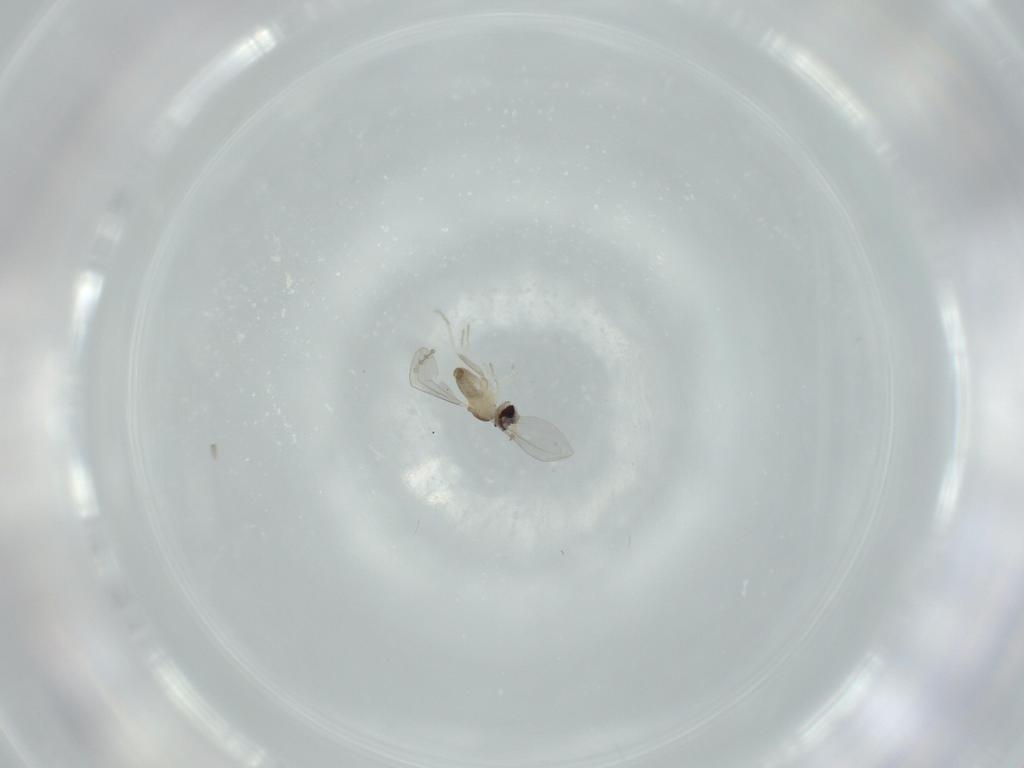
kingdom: Animalia
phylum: Arthropoda
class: Insecta
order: Diptera
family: Cecidomyiidae
